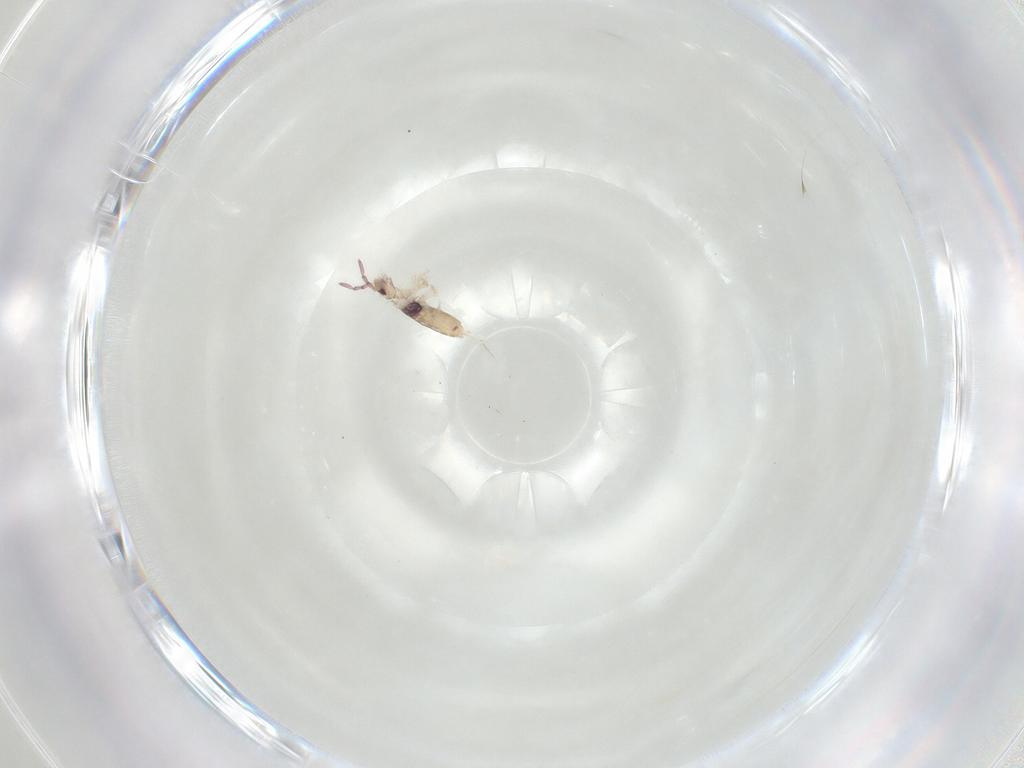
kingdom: Animalia
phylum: Arthropoda
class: Collembola
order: Entomobryomorpha
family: Entomobryidae
